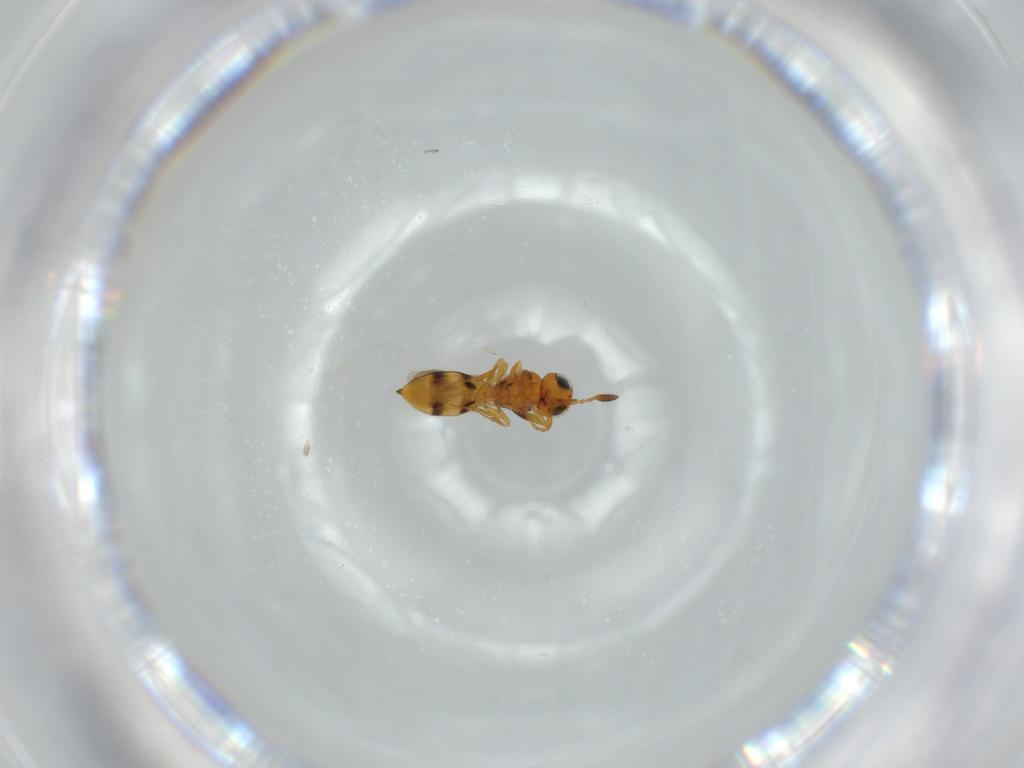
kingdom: Animalia
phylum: Arthropoda
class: Insecta
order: Hymenoptera
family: Scelionidae
